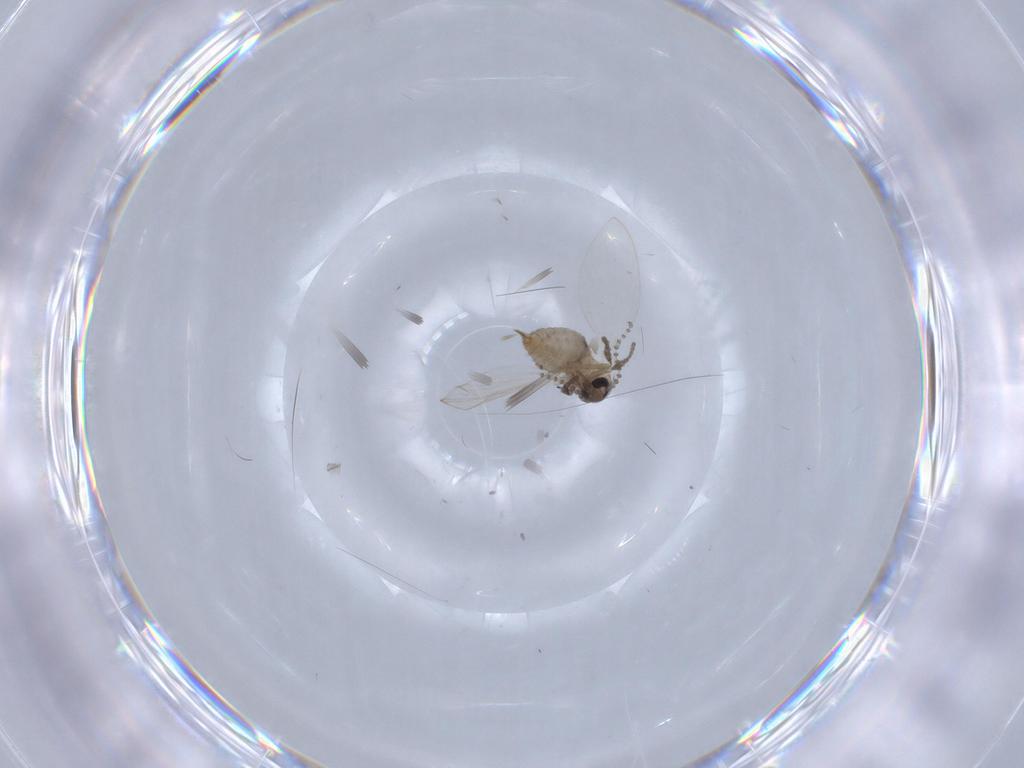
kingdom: Animalia
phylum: Arthropoda
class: Insecta
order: Diptera
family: Psychodidae
